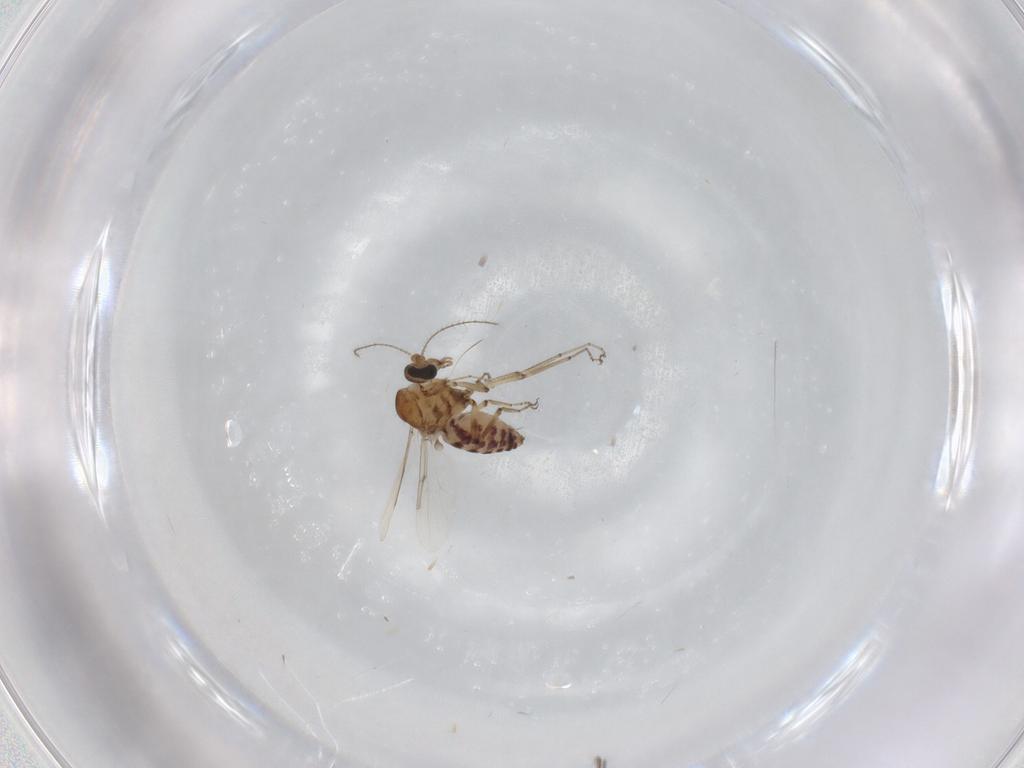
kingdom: Animalia
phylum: Arthropoda
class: Insecta
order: Diptera
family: Ceratopogonidae
